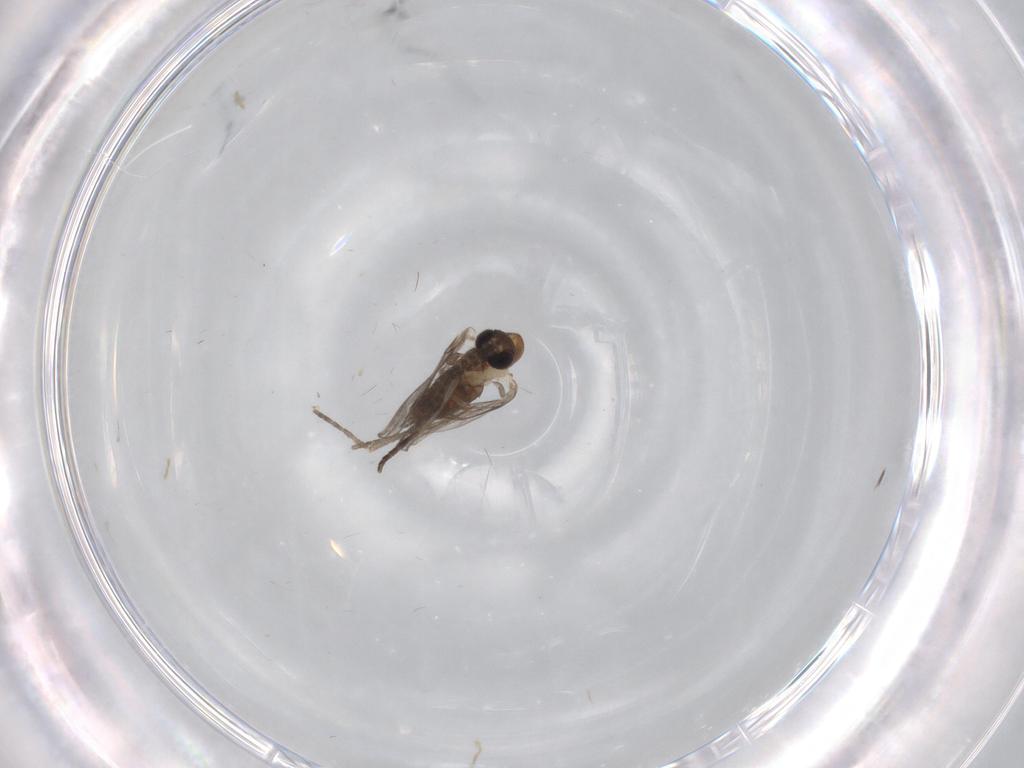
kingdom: Animalia
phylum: Arthropoda
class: Insecta
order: Diptera
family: Psychodidae
